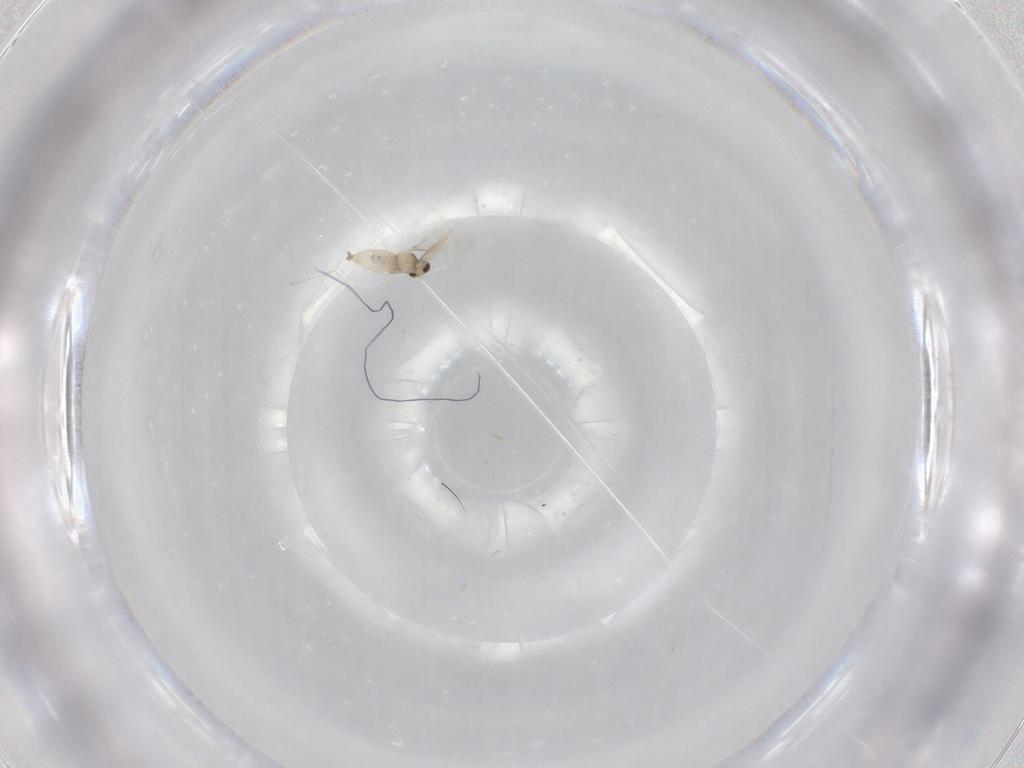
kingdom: Animalia
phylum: Arthropoda
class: Insecta
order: Diptera
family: Cecidomyiidae
